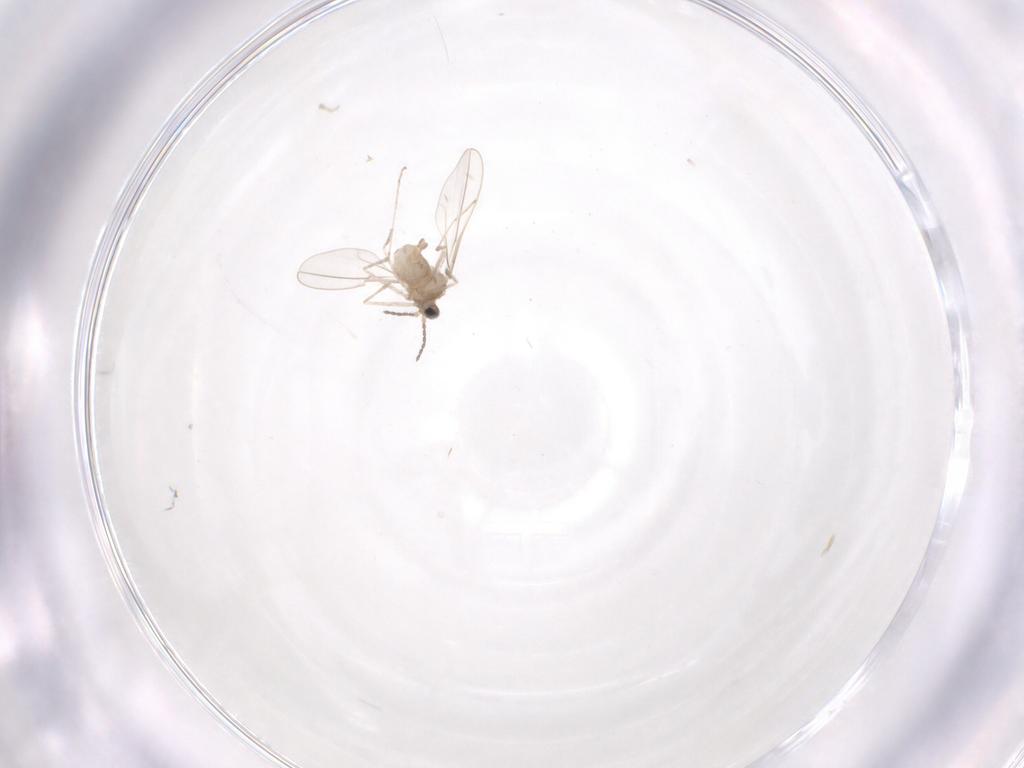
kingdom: Animalia
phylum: Arthropoda
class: Insecta
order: Diptera
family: Cecidomyiidae
